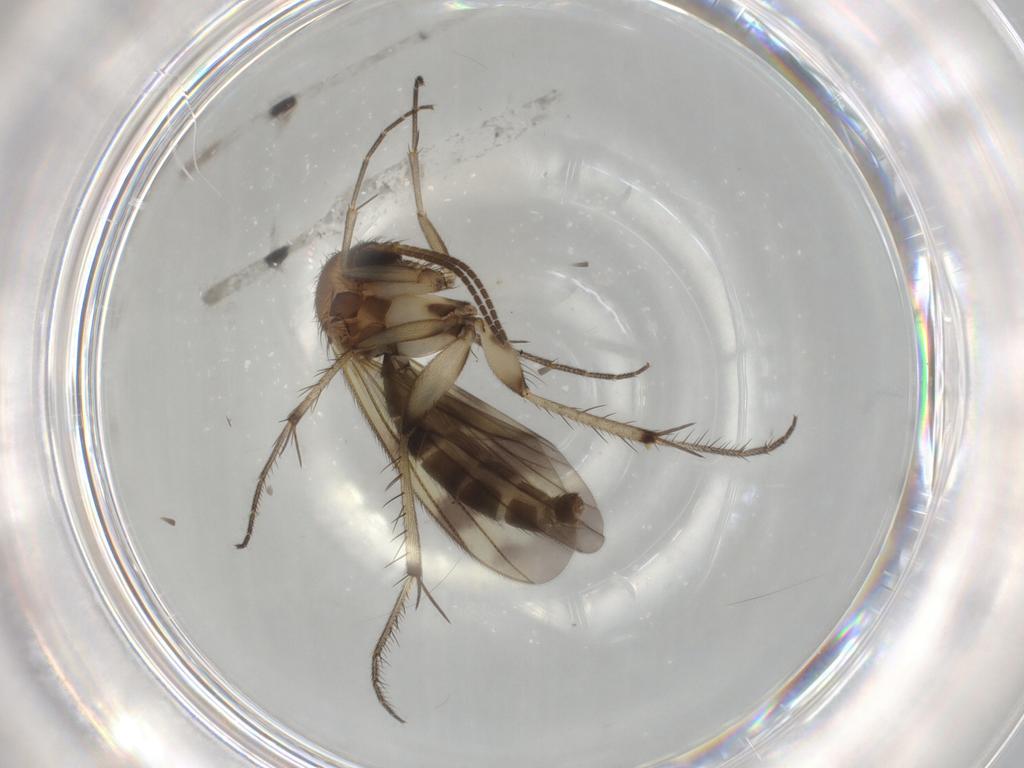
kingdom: Animalia
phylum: Arthropoda
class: Insecta
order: Diptera
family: Mycetophilidae
